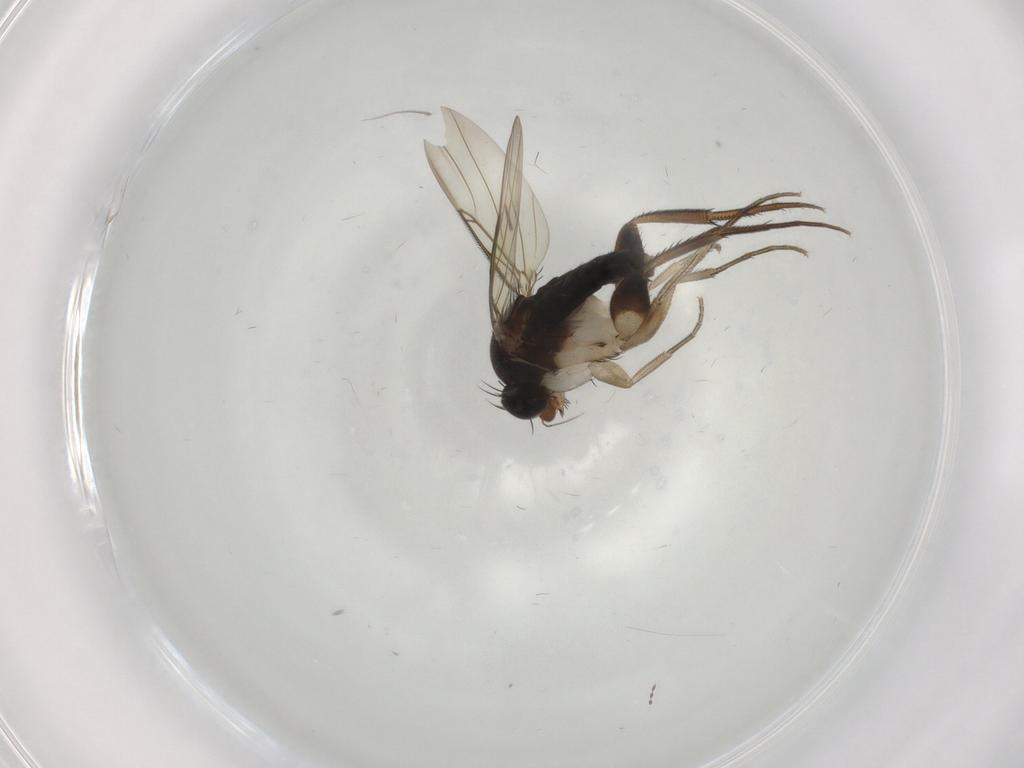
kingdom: Animalia
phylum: Arthropoda
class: Insecta
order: Diptera
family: Phoridae
